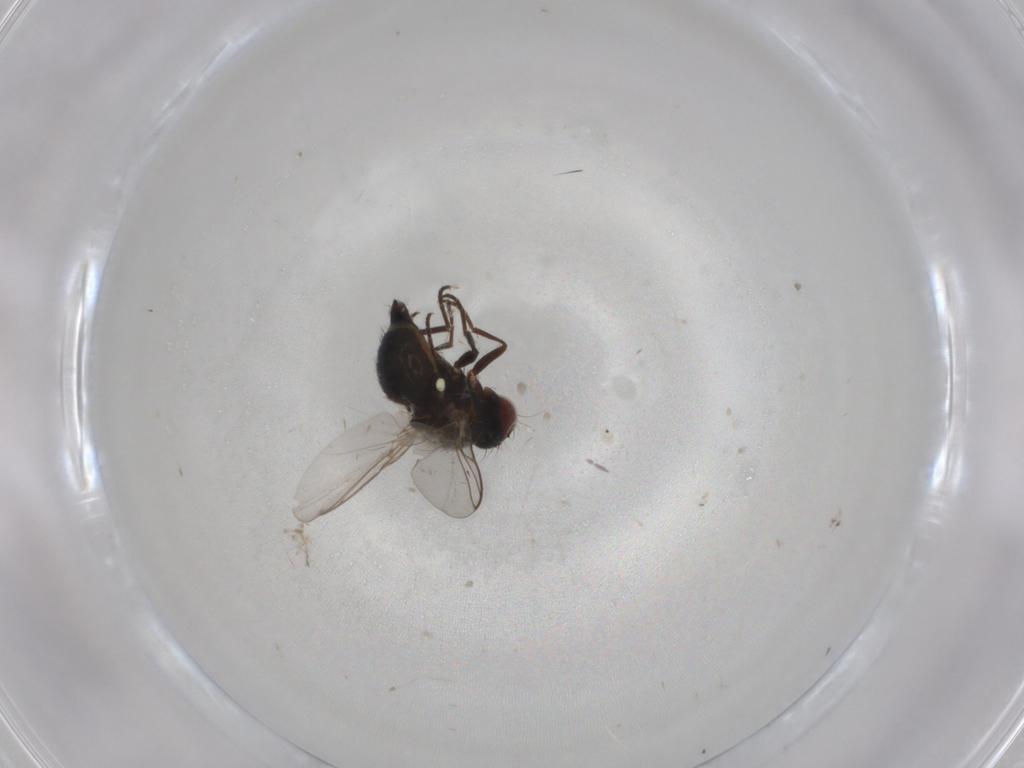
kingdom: Animalia
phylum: Arthropoda
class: Insecta
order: Diptera
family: Sciaridae
